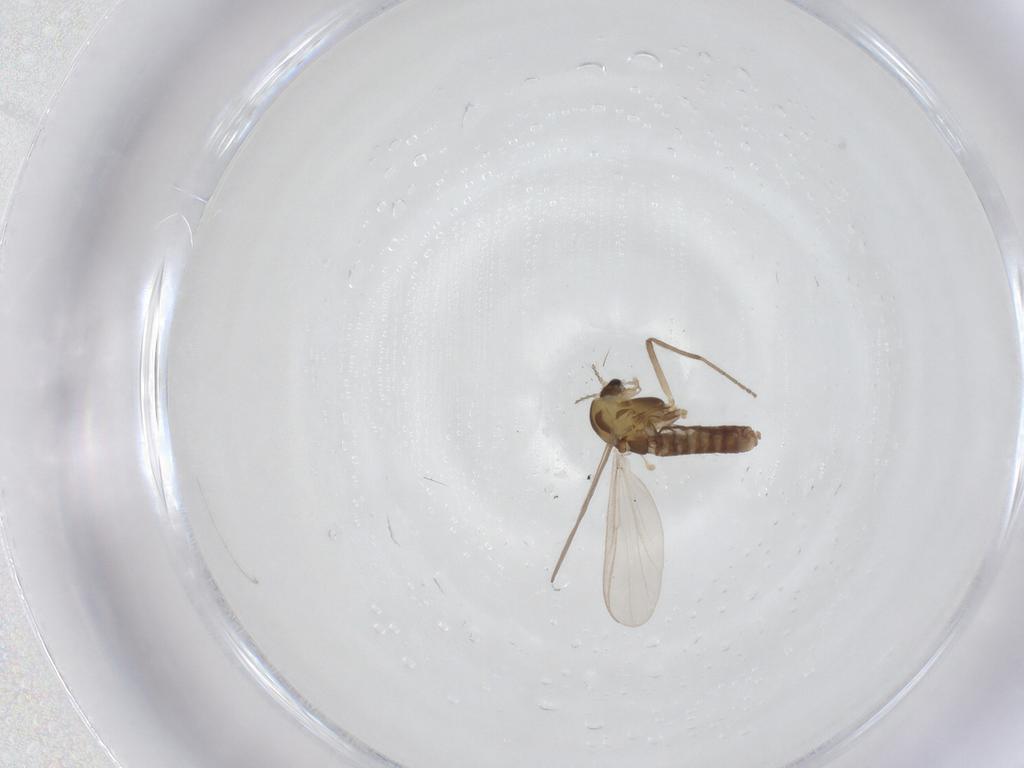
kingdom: Animalia
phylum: Arthropoda
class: Insecta
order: Diptera
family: Chironomidae
